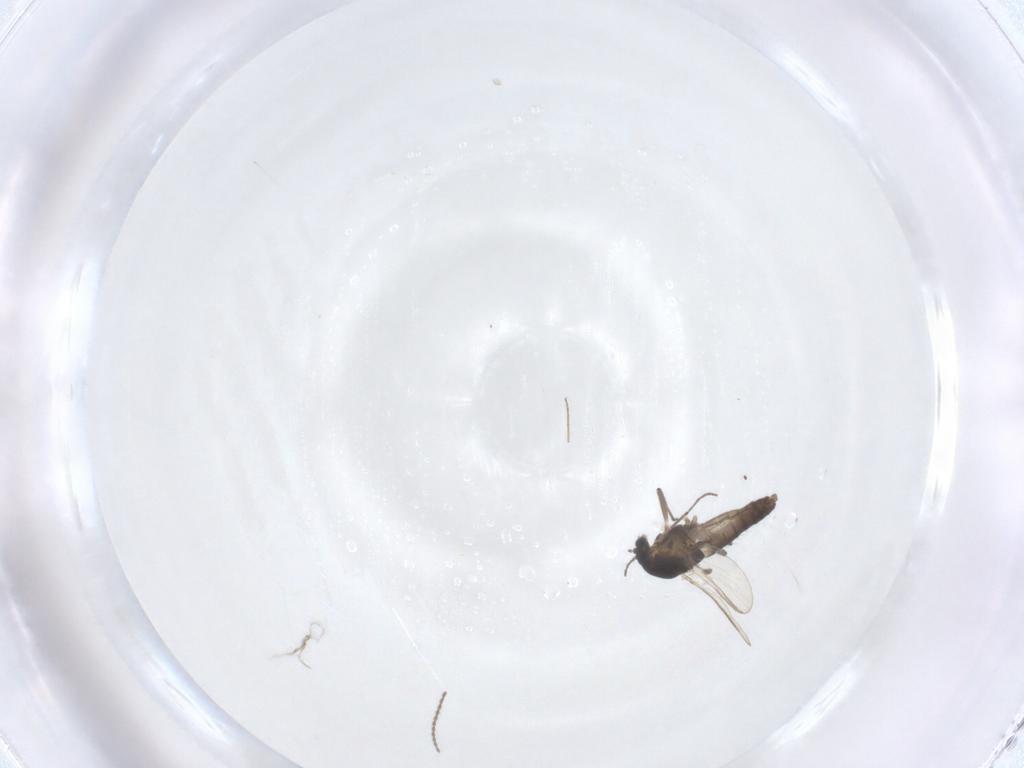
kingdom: Animalia
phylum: Arthropoda
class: Insecta
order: Diptera
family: Chironomidae
